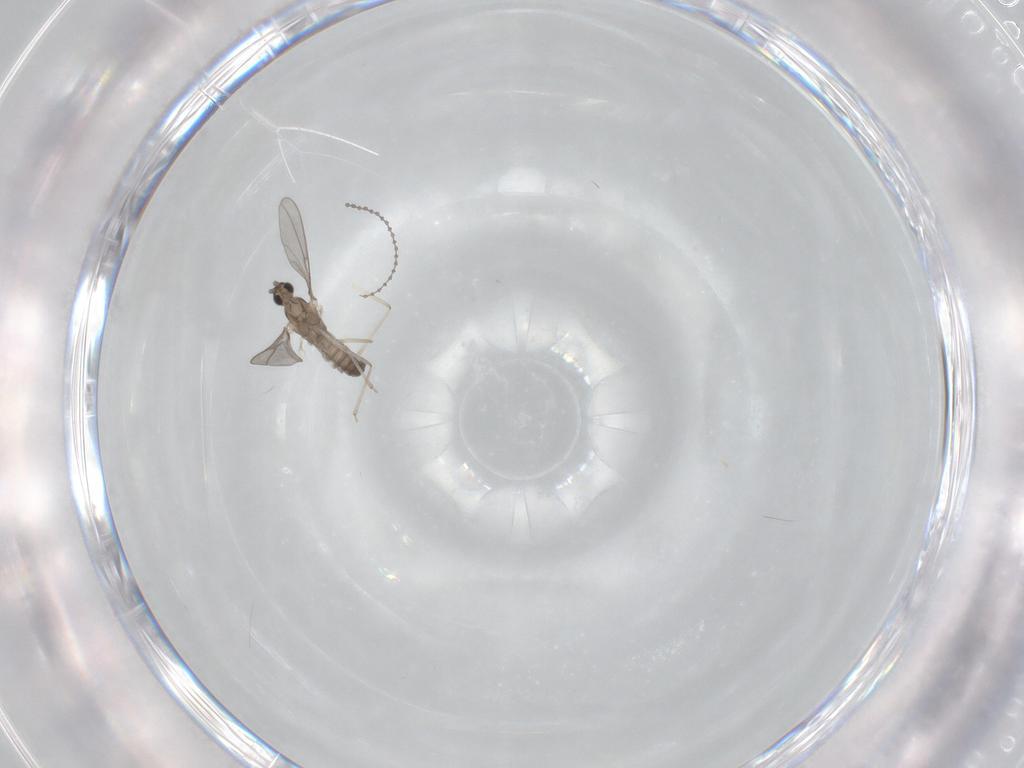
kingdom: Animalia
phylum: Arthropoda
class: Insecta
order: Diptera
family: Cecidomyiidae
